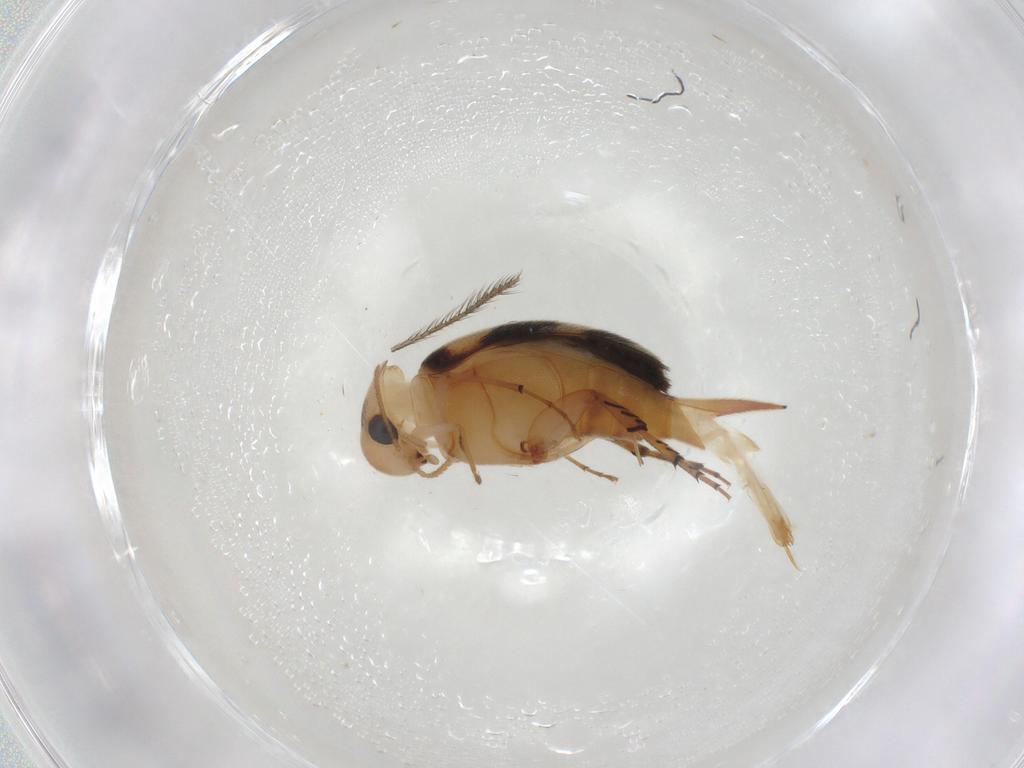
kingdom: Animalia
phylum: Arthropoda
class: Insecta
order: Coleoptera
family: Mordellidae
